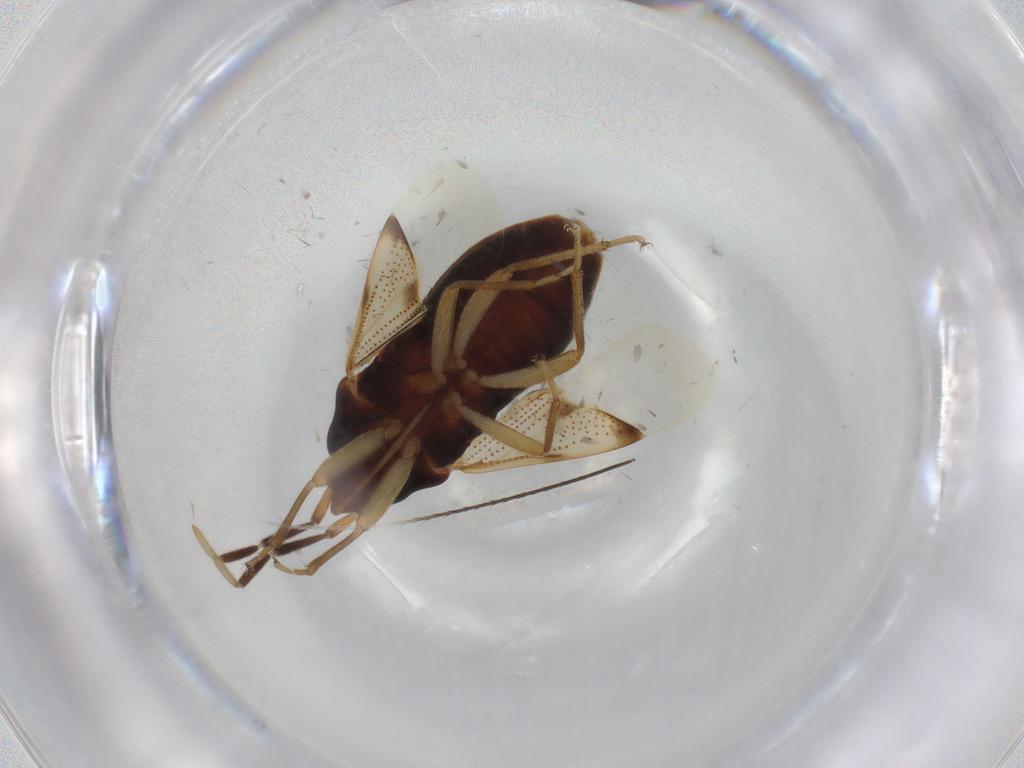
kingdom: Animalia
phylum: Arthropoda
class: Insecta
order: Hemiptera
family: Rhyparochromidae
